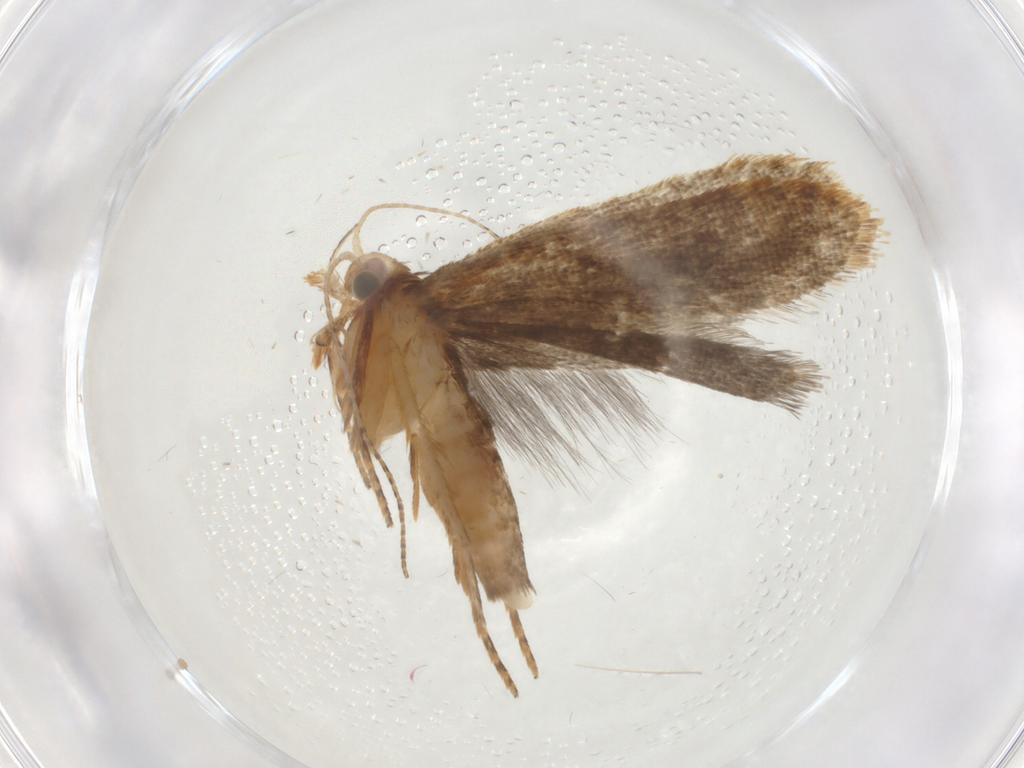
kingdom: Animalia
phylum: Arthropoda
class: Insecta
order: Lepidoptera
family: Gelechiidae
